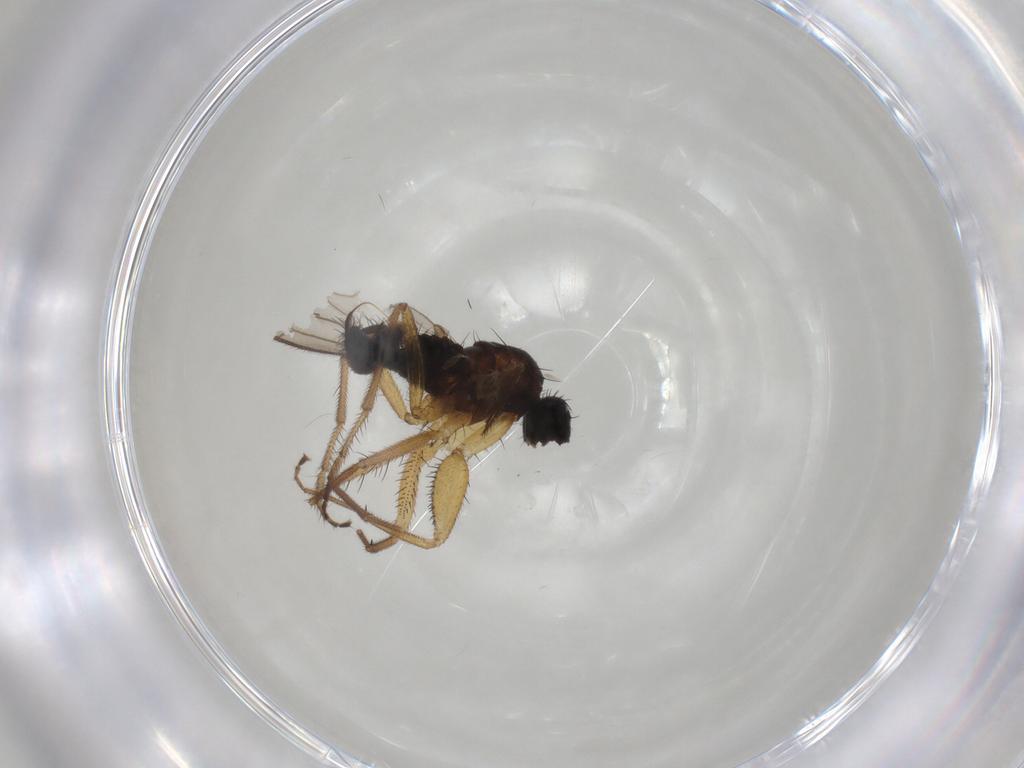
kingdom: Animalia
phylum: Arthropoda
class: Insecta
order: Diptera
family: Empididae
